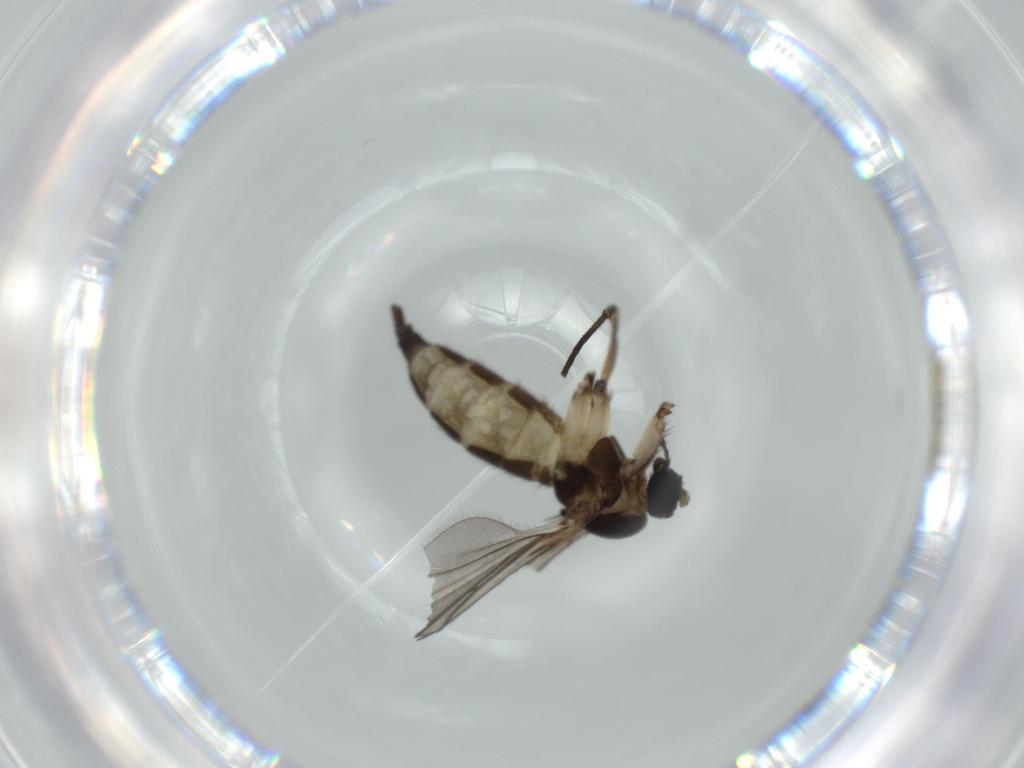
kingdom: Animalia
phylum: Arthropoda
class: Insecta
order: Diptera
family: Sciaridae
